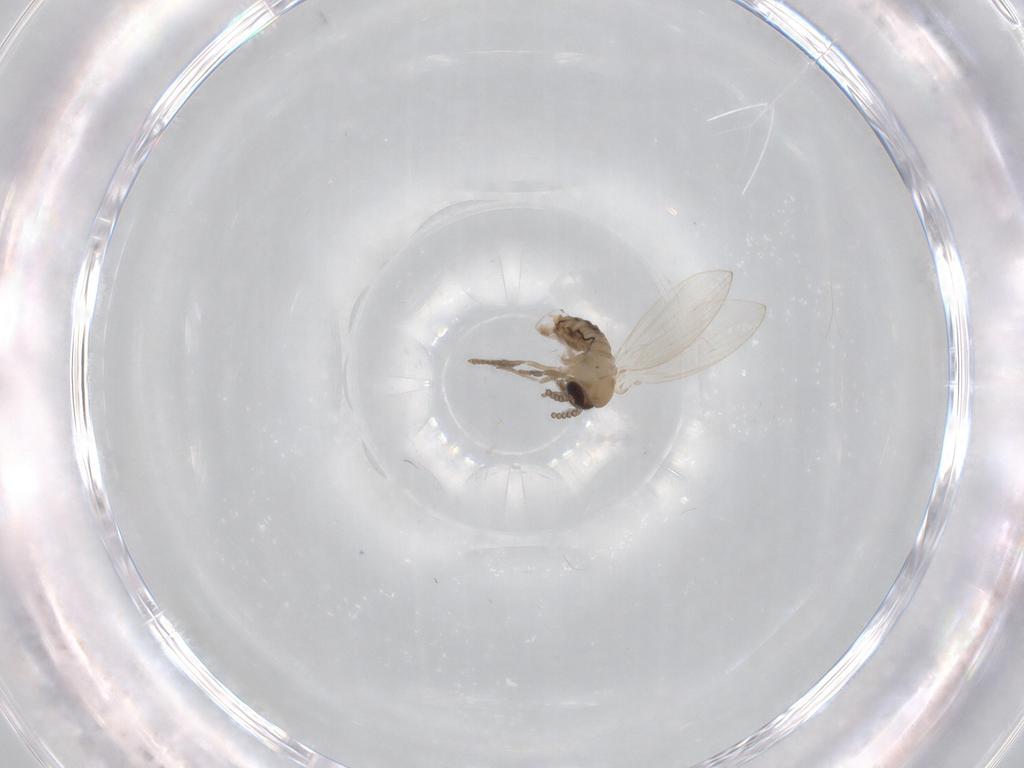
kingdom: Animalia
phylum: Arthropoda
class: Insecta
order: Diptera
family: Psychodidae
